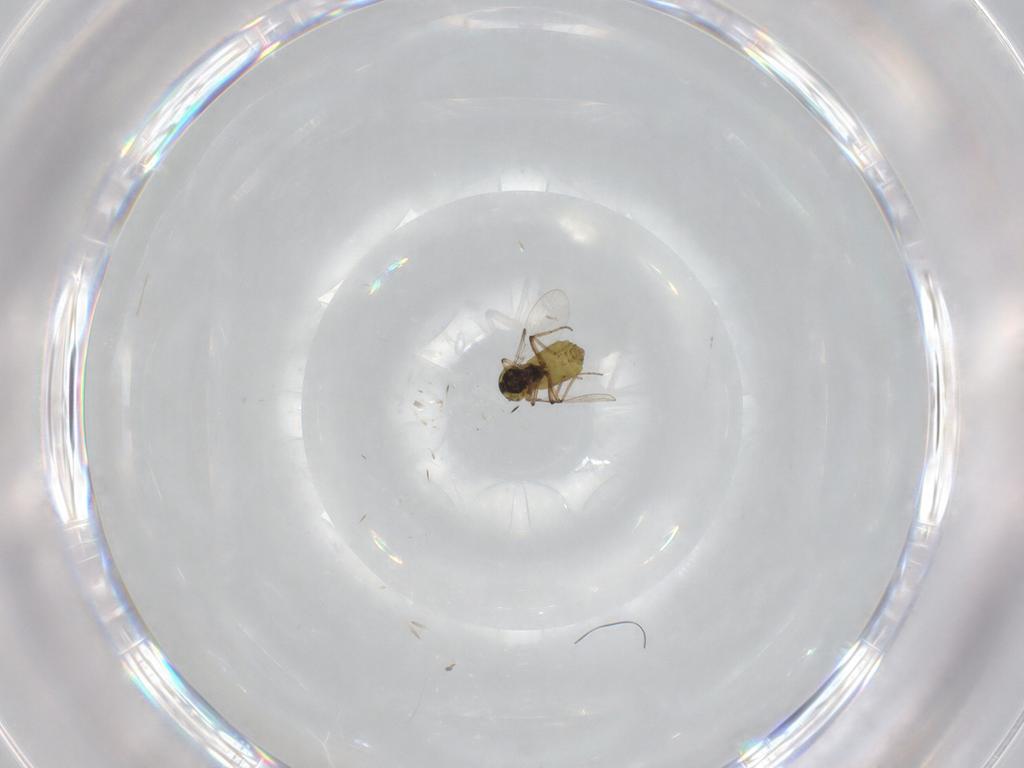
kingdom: Animalia
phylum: Arthropoda
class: Insecta
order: Diptera
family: Ceratopogonidae
